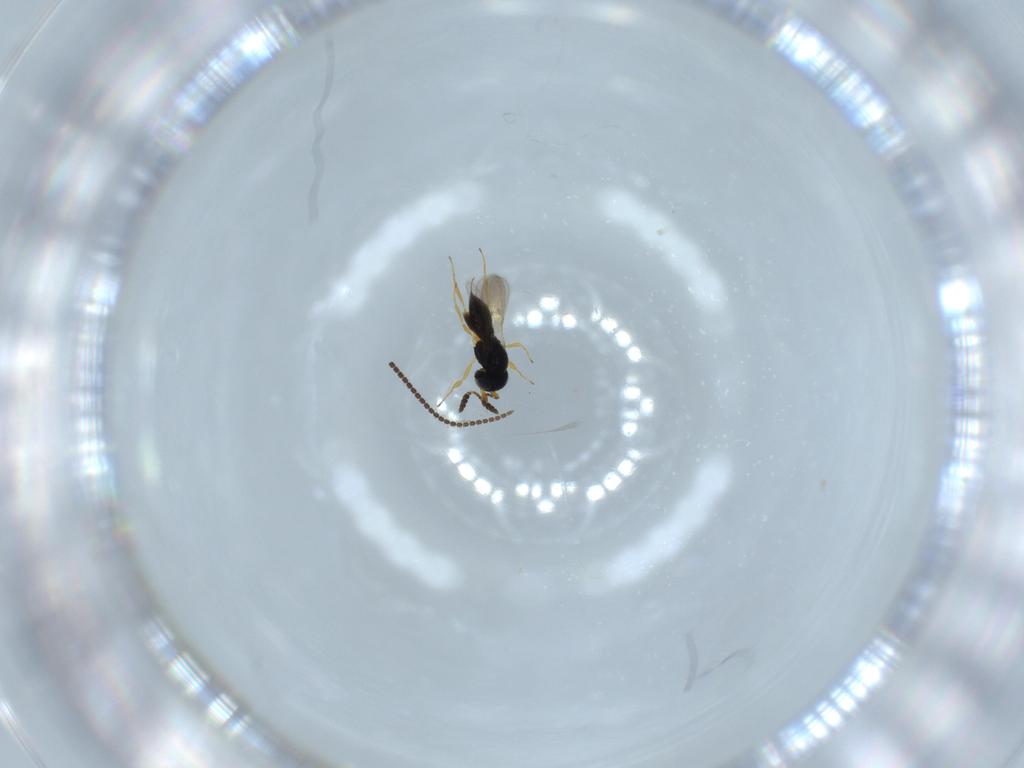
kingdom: Animalia
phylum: Arthropoda
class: Insecta
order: Hymenoptera
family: Scelionidae
